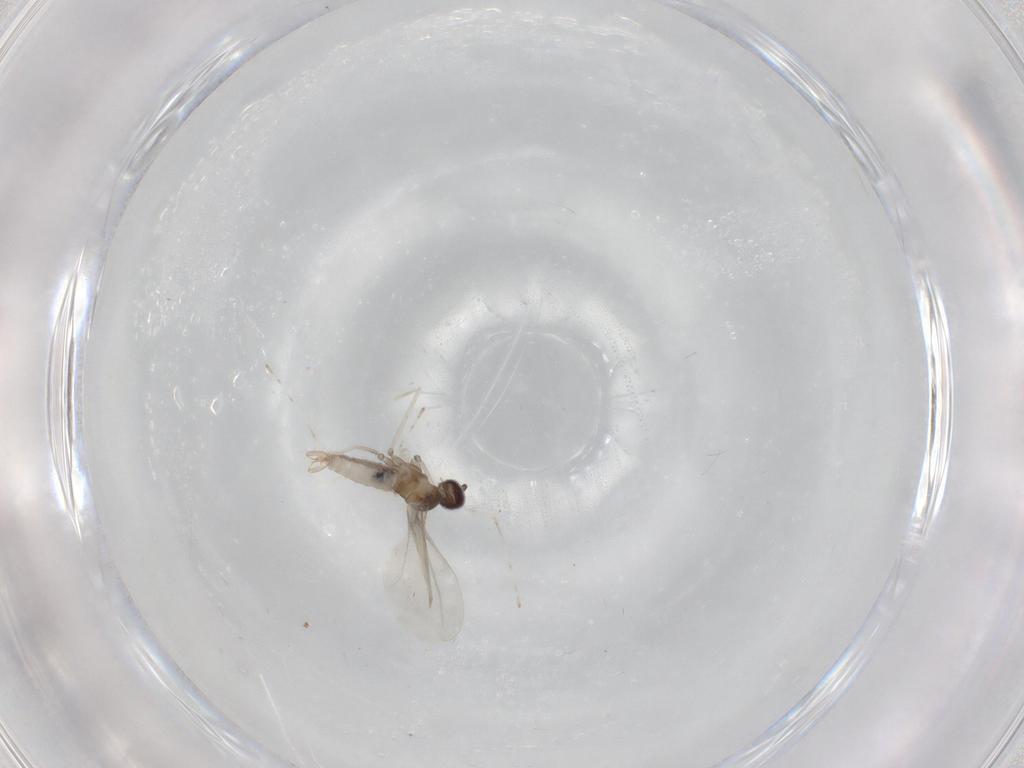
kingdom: Animalia
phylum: Arthropoda
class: Insecta
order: Diptera
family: Cecidomyiidae
